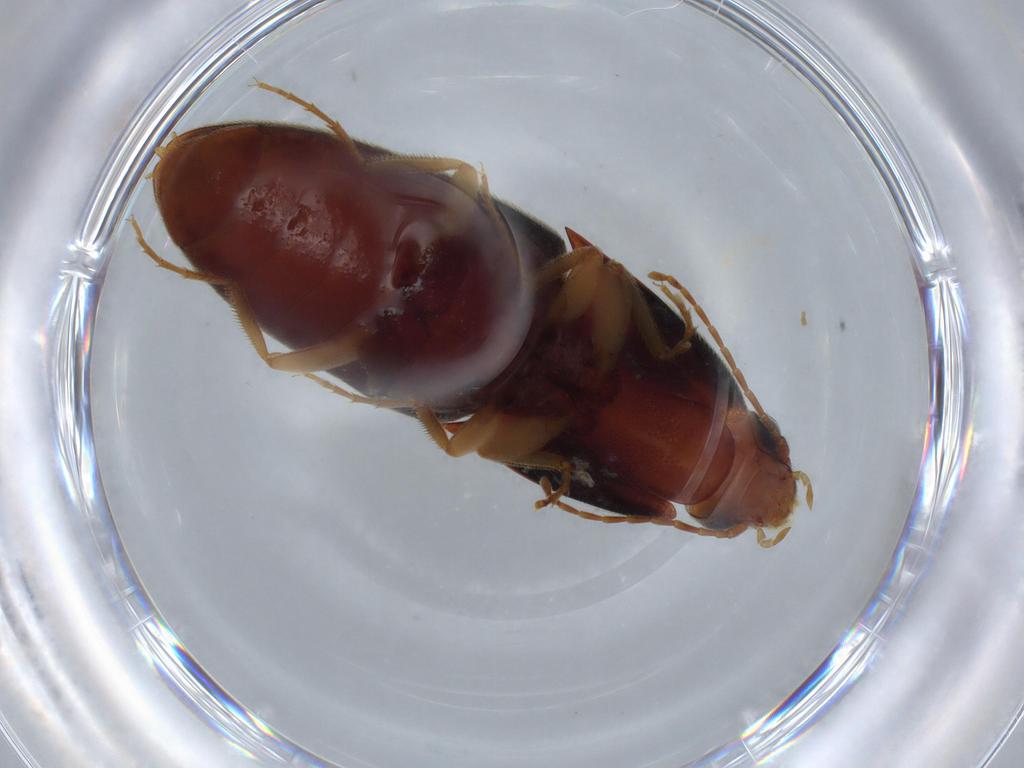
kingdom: Animalia
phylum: Arthropoda
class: Insecta
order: Coleoptera
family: Elateridae
